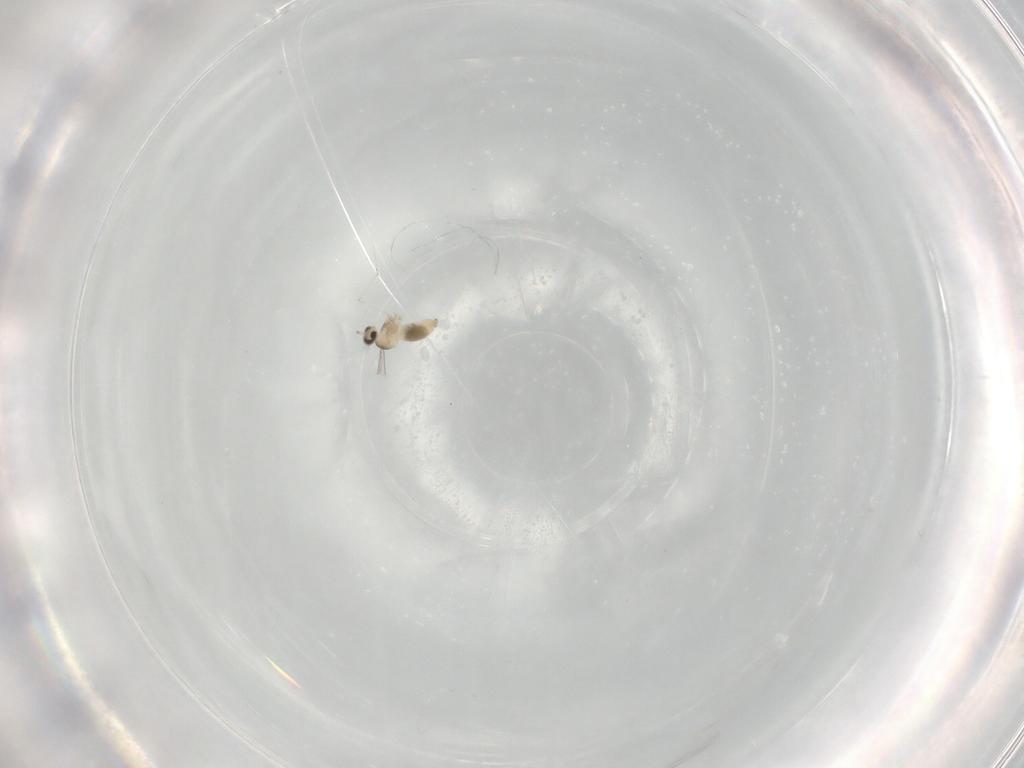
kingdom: Animalia
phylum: Arthropoda
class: Insecta
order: Diptera
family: Cecidomyiidae
